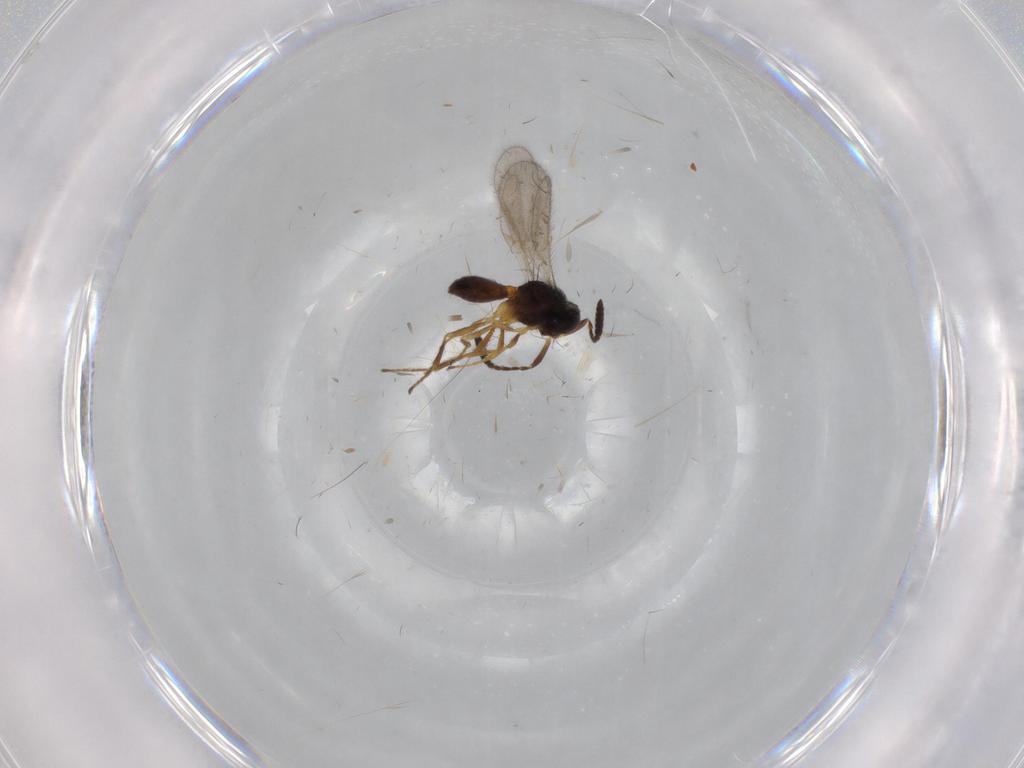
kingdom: Animalia
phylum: Arthropoda
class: Insecta
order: Hymenoptera
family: Scelionidae
